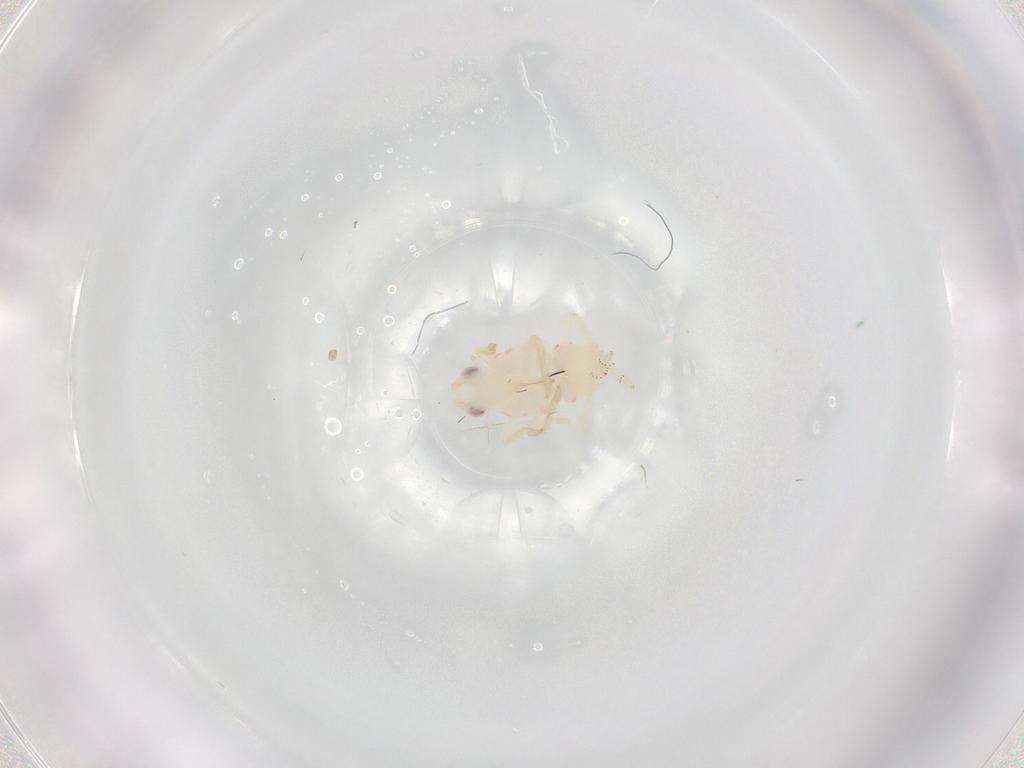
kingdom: Animalia
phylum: Arthropoda
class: Insecta
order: Hemiptera
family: Tropiduchidae
